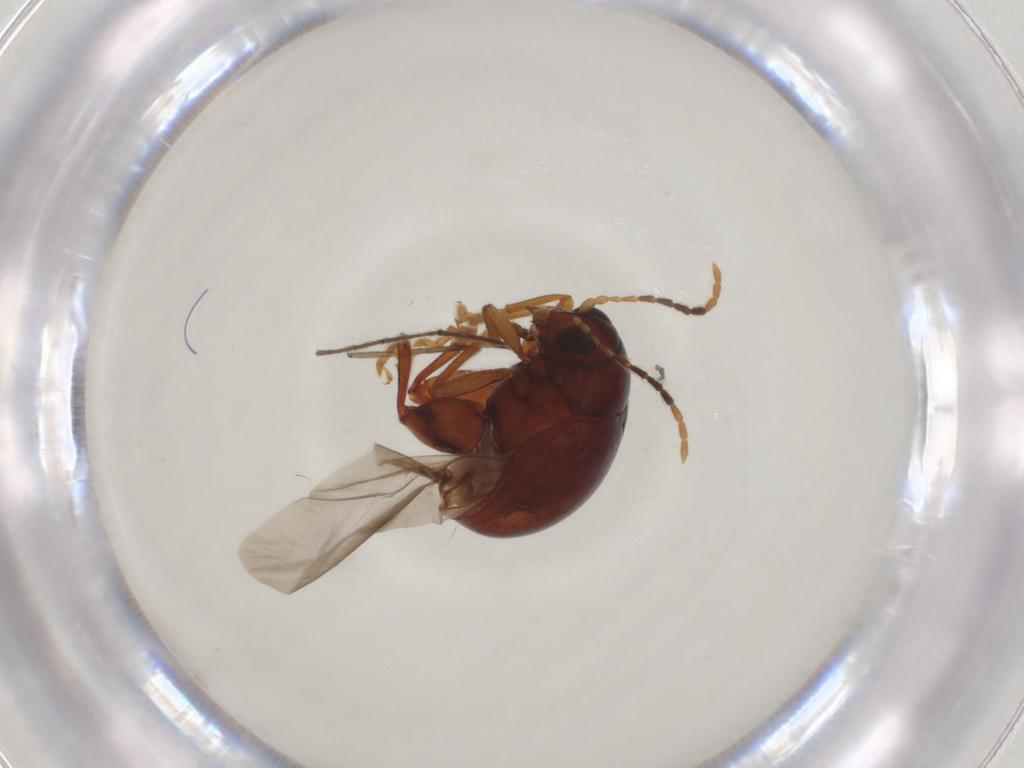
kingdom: Animalia
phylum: Arthropoda
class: Insecta
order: Coleoptera
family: Chrysomelidae
